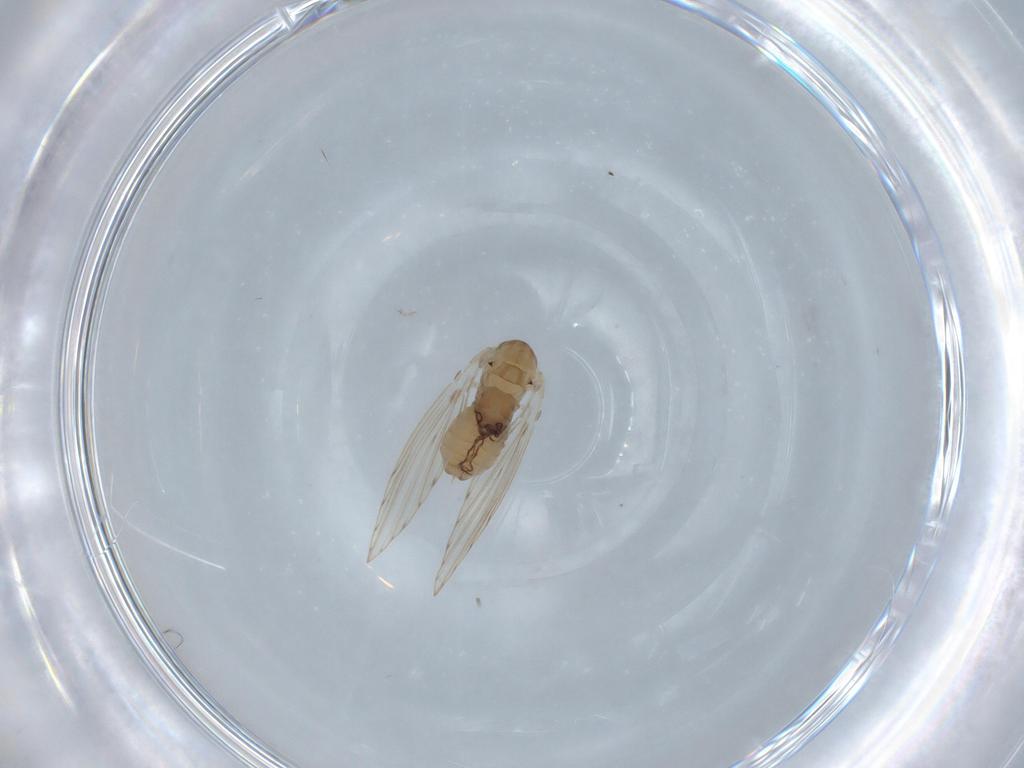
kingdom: Animalia
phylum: Arthropoda
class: Insecta
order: Diptera
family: Psychodidae
